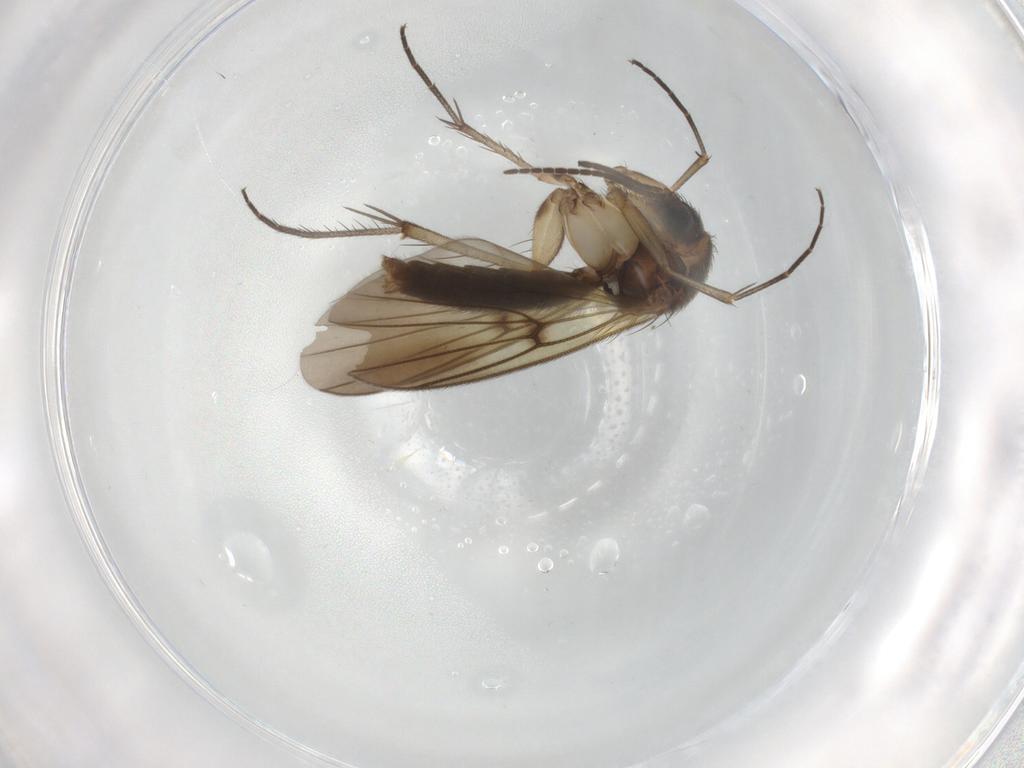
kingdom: Animalia
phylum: Arthropoda
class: Insecta
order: Diptera
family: Mycetophilidae
